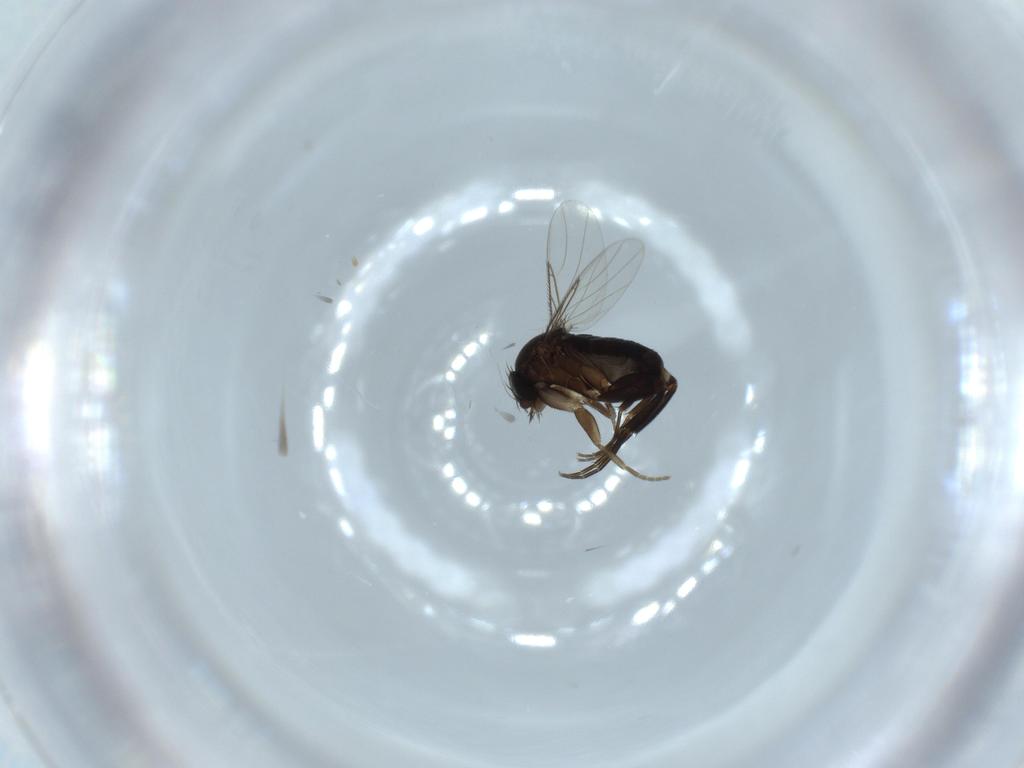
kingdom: Animalia
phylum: Arthropoda
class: Insecta
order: Diptera
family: Phoridae
